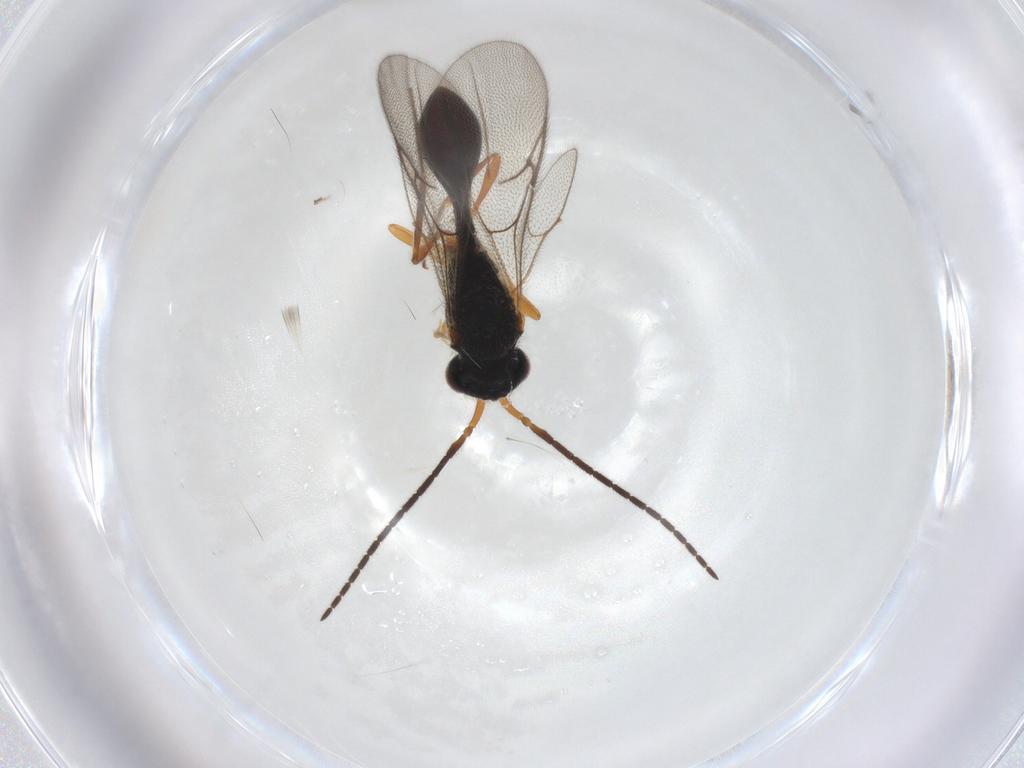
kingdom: Animalia
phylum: Arthropoda
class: Insecta
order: Hymenoptera
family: Diapriidae
